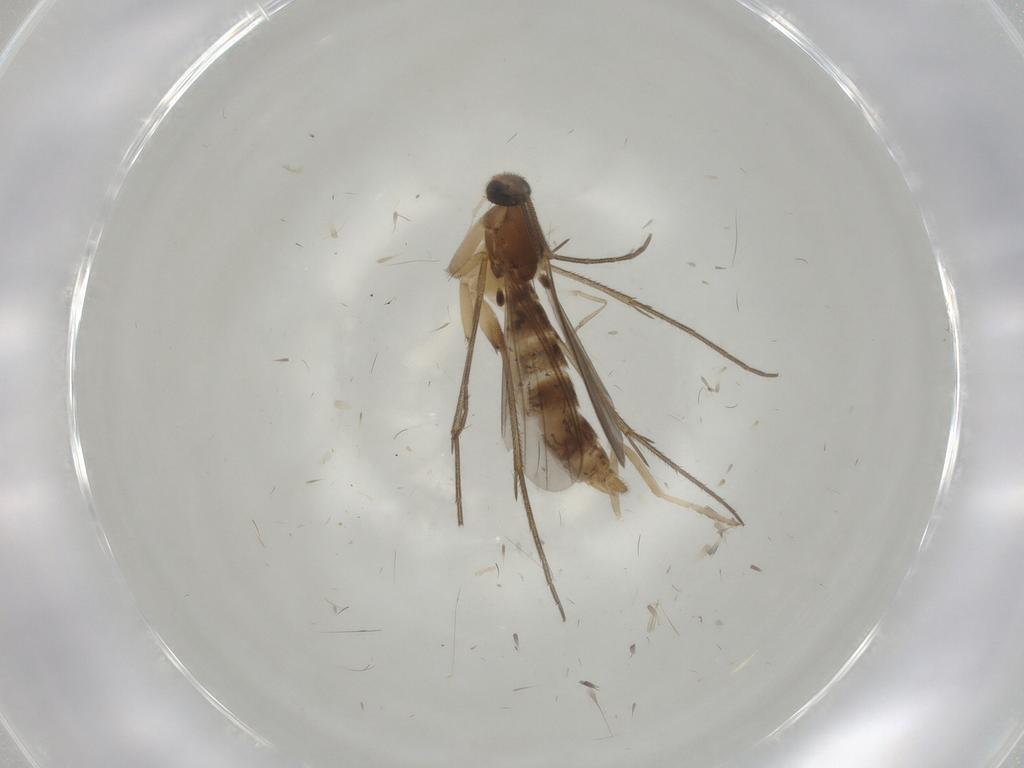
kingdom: Animalia
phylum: Arthropoda
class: Insecta
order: Diptera
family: Mycetophilidae
